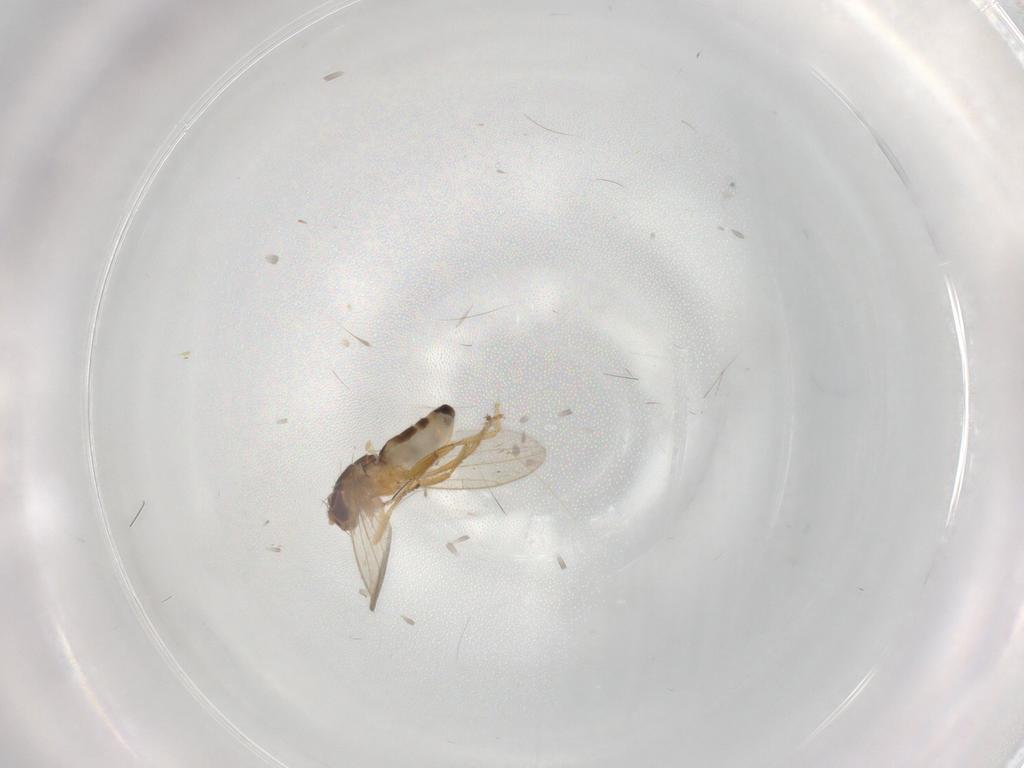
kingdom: Animalia
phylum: Arthropoda
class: Insecta
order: Diptera
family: Periscelididae
